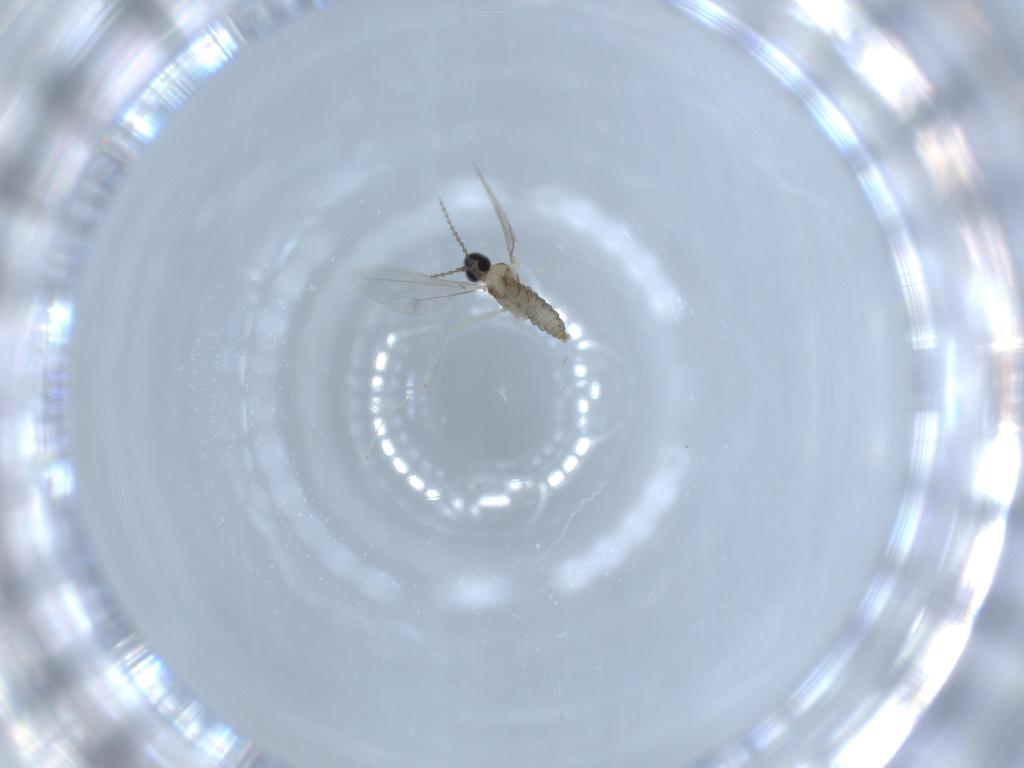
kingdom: Animalia
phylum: Arthropoda
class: Insecta
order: Diptera
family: Cecidomyiidae
